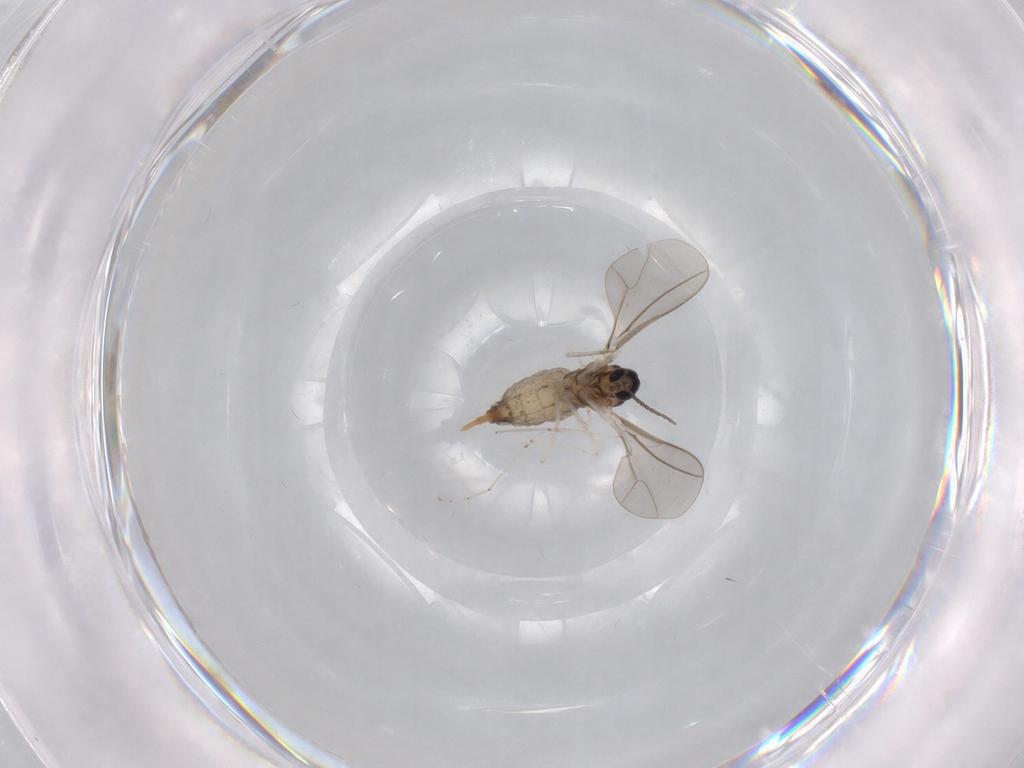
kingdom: Animalia
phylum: Arthropoda
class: Insecta
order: Diptera
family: Cecidomyiidae
